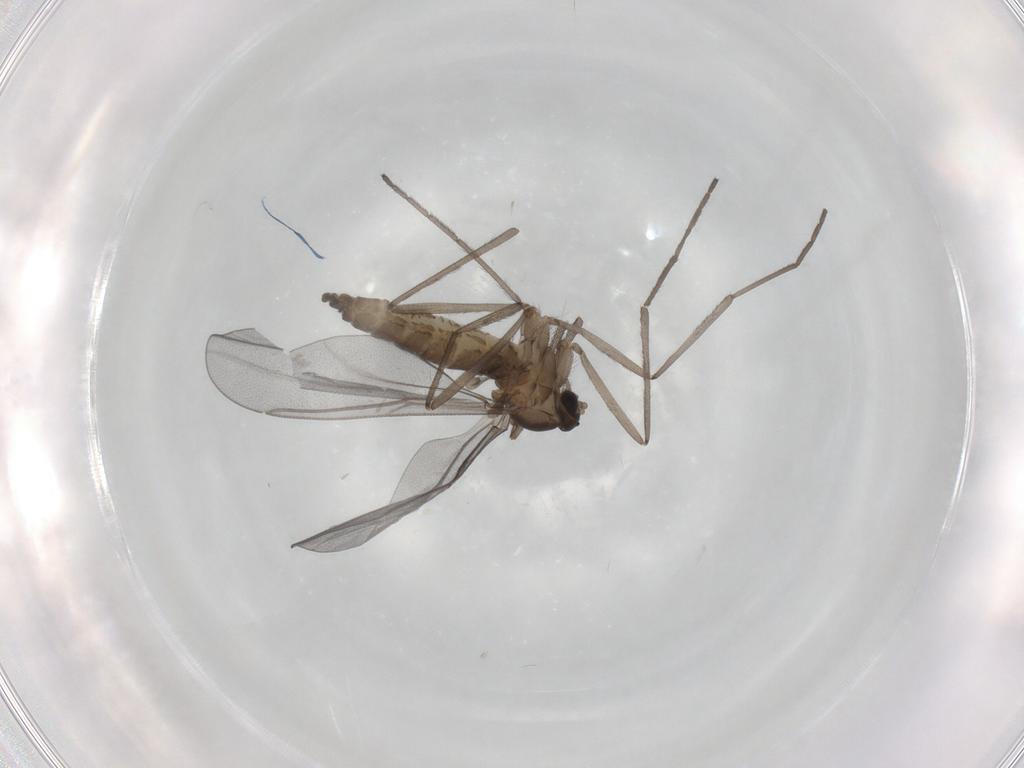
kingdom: Animalia
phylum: Arthropoda
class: Insecta
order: Diptera
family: Cecidomyiidae
